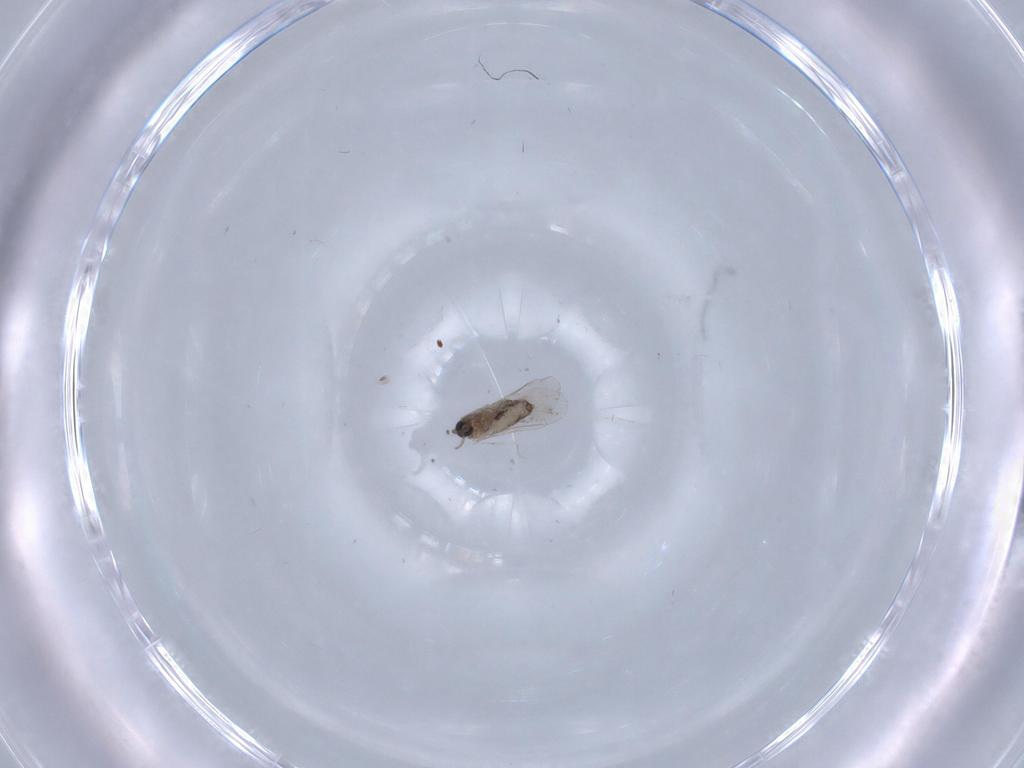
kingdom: Animalia
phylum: Arthropoda
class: Insecta
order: Diptera
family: Cecidomyiidae
